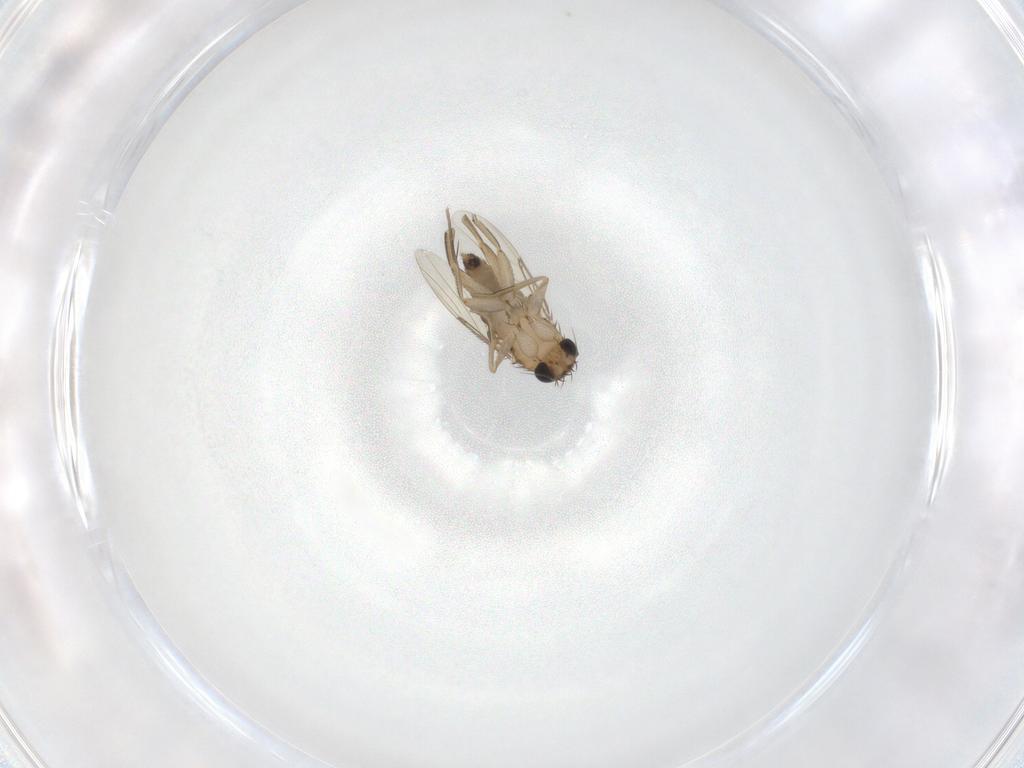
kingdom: Animalia
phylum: Arthropoda
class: Insecta
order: Diptera
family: Phoridae
